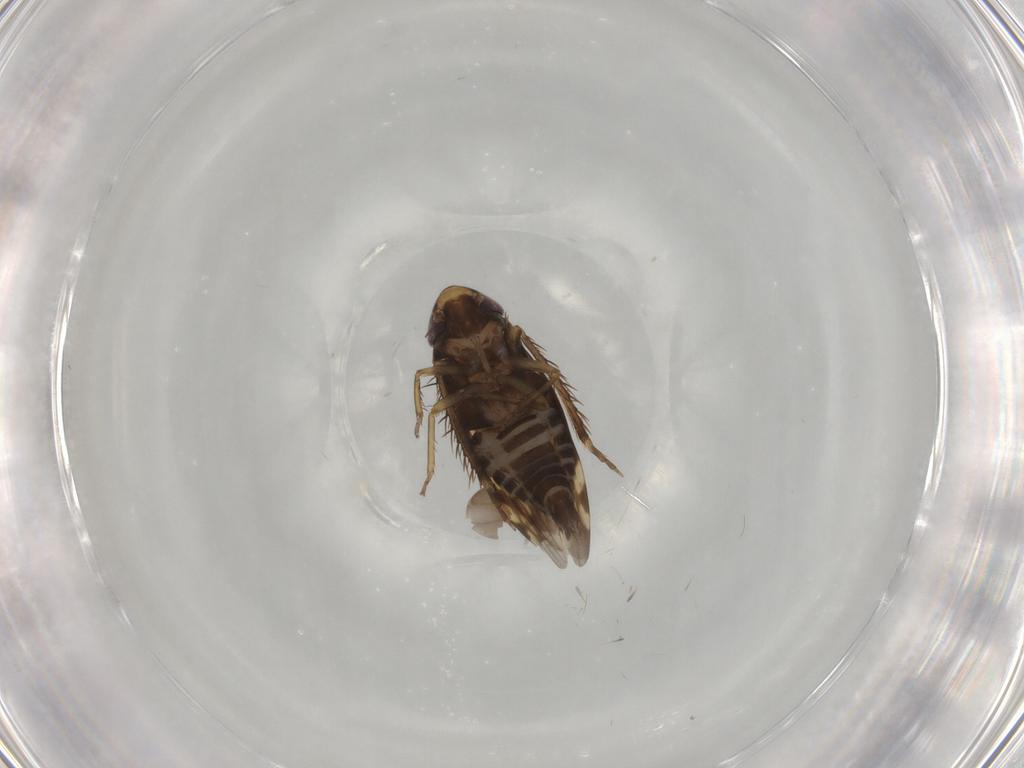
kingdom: Animalia
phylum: Arthropoda
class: Insecta
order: Hemiptera
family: Cicadellidae
